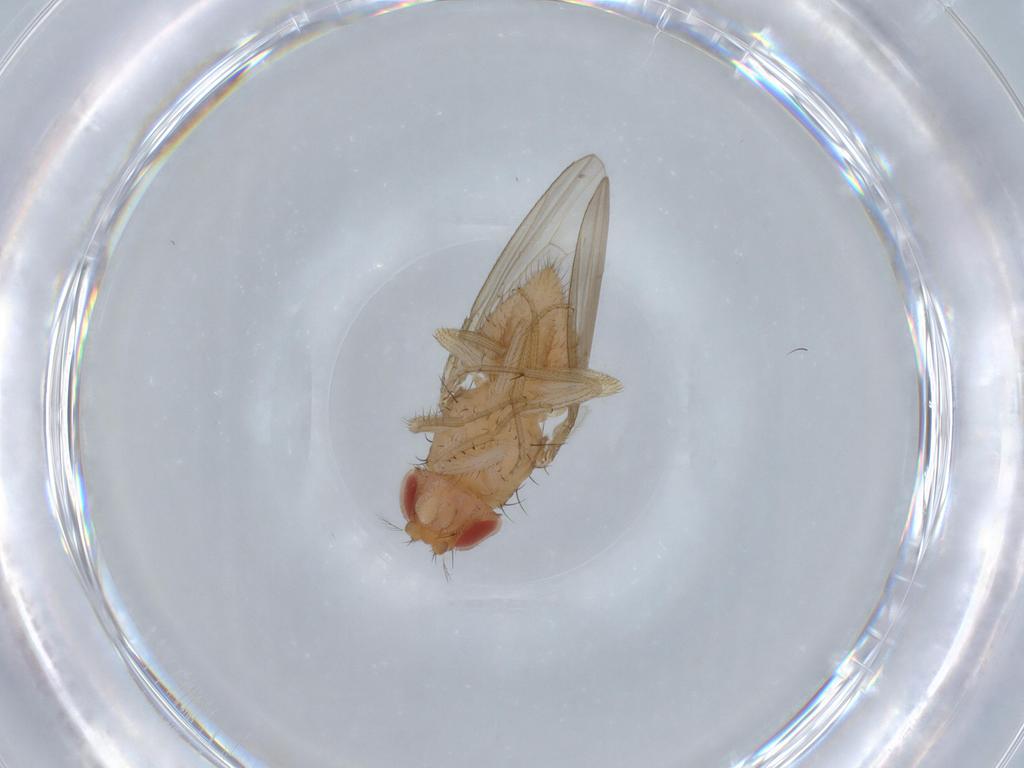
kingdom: Animalia
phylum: Arthropoda
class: Insecta
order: Diptera
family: Drosophilidae
